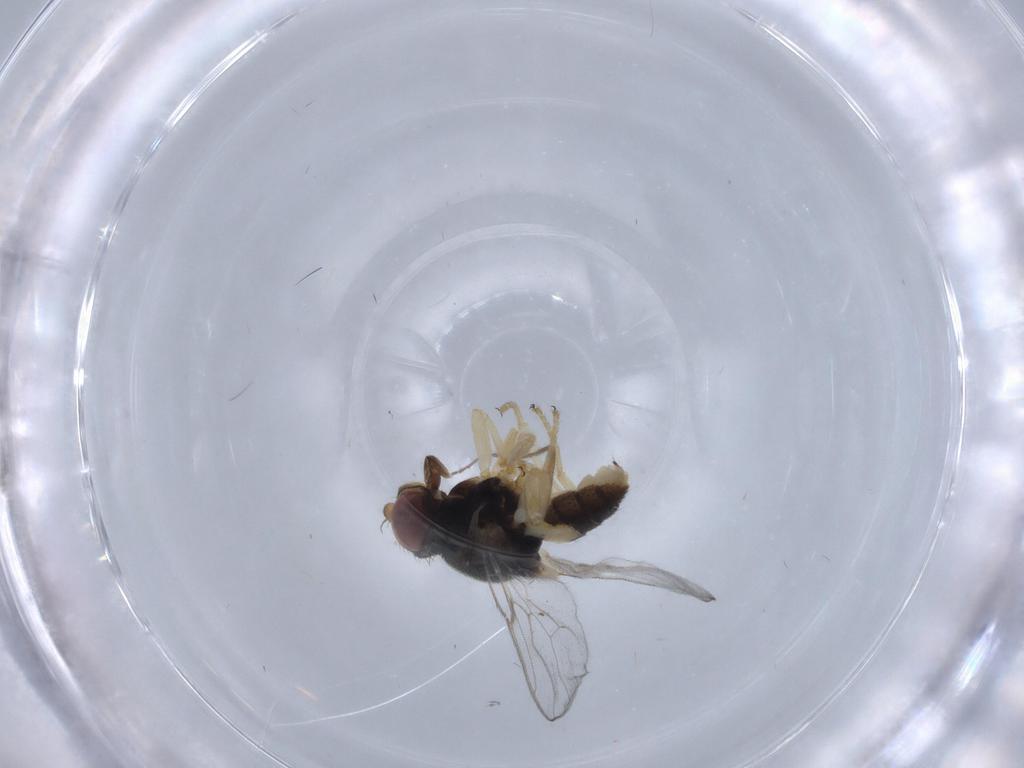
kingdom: Animalia
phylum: Arthropoda
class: Insecta
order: Diptera
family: Chloropidae
